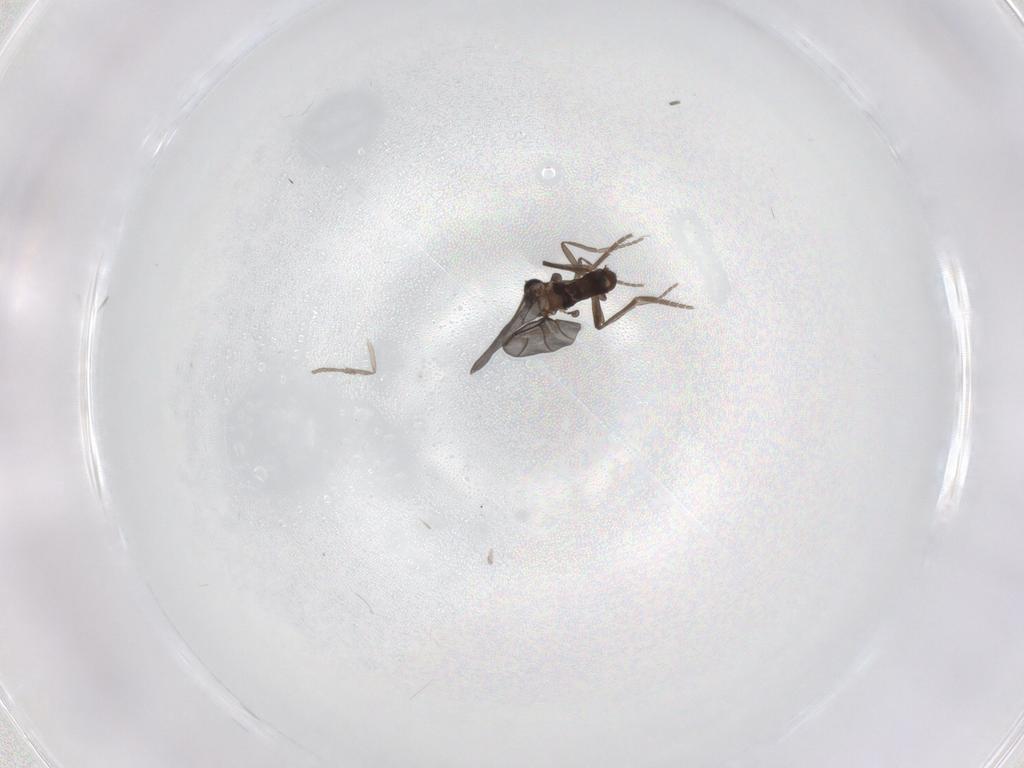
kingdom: Animalia
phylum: Arthropoda
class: Insecta
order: Diptera
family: Phoridae
